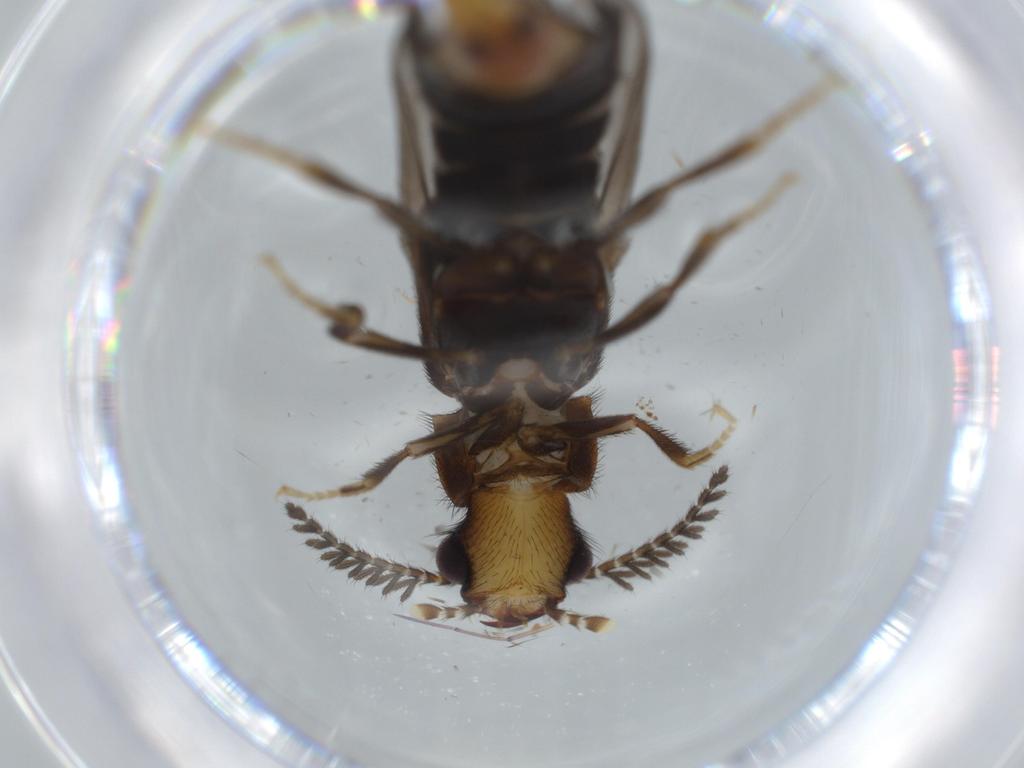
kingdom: Animalia
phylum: Arthropoda
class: Insecta
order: Coleoptera
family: Phengodidae
